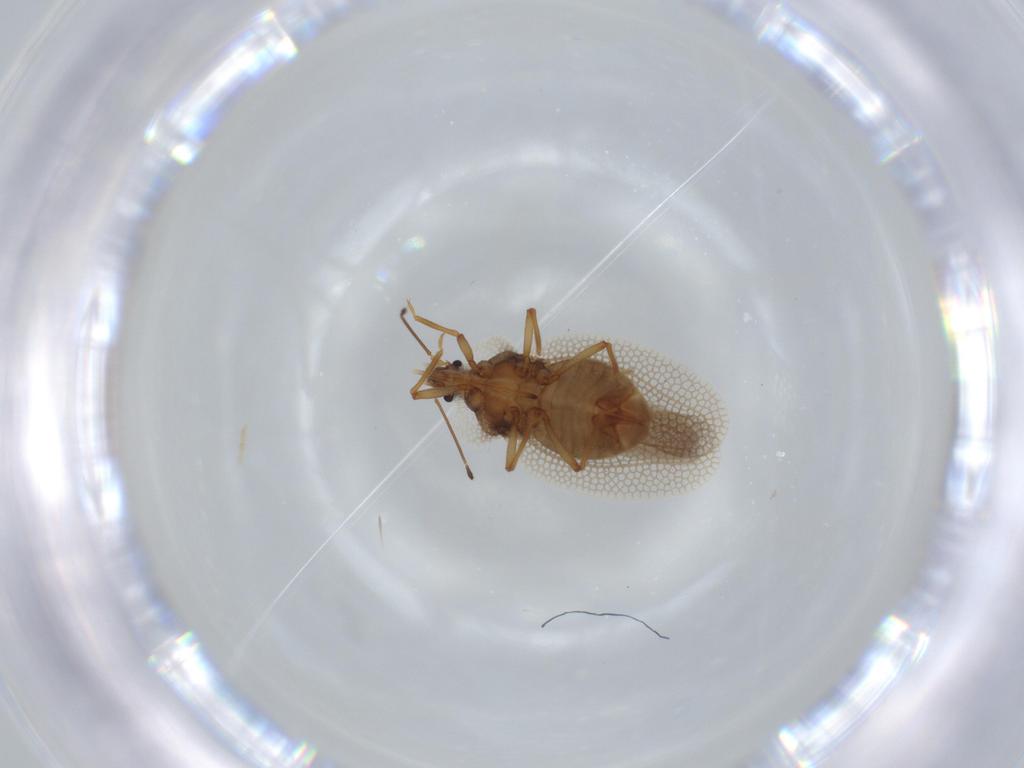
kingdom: Animalia
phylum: Arthropoda
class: Insecta
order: Hemiptera
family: Tingidae
